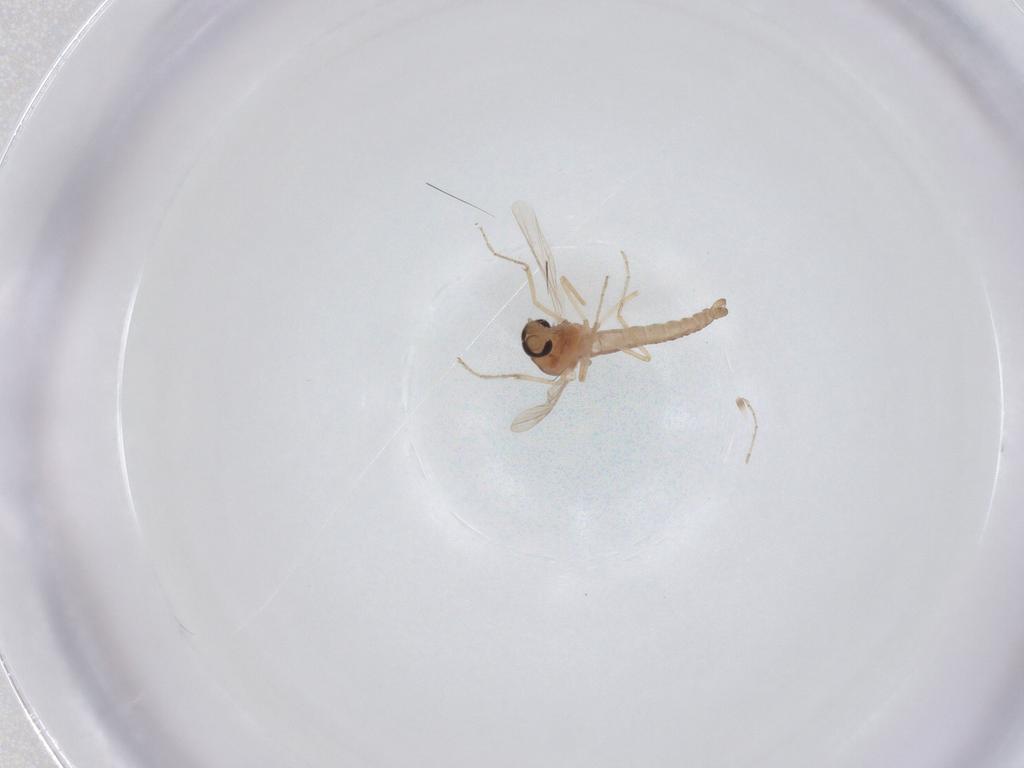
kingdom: Animalia
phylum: Arthropoda
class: Insecta
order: Diptera
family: Ceratopogonidae
